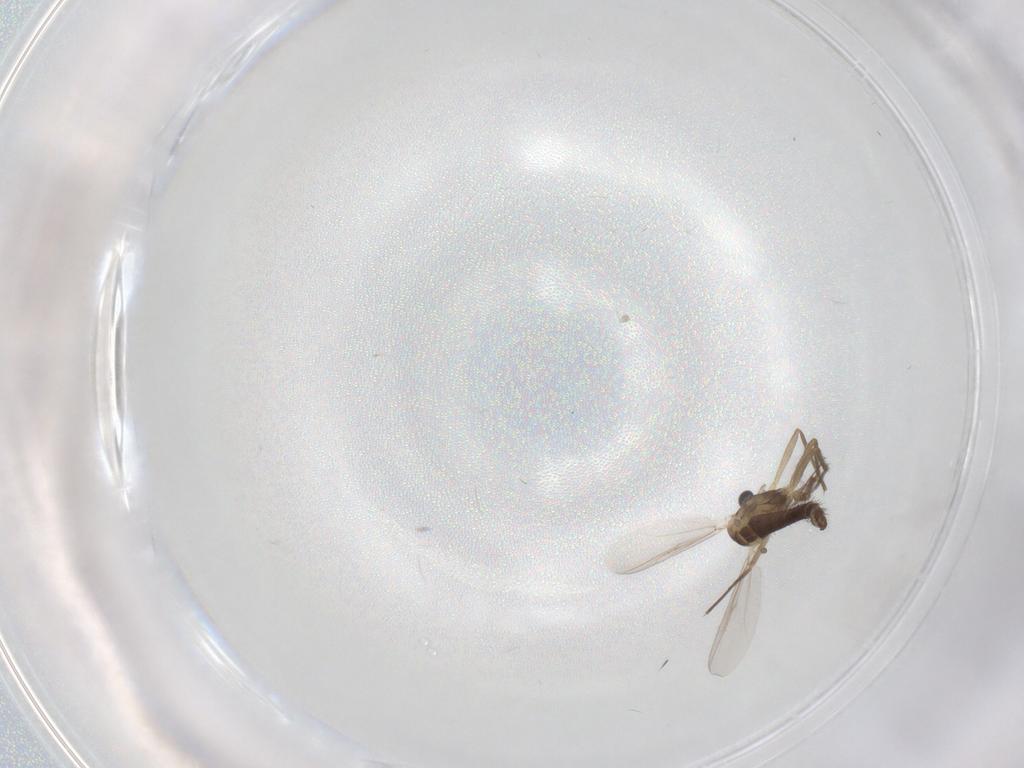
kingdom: Animalia
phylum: Arthropoda
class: Insecta
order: Diptera
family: Chironomidae
